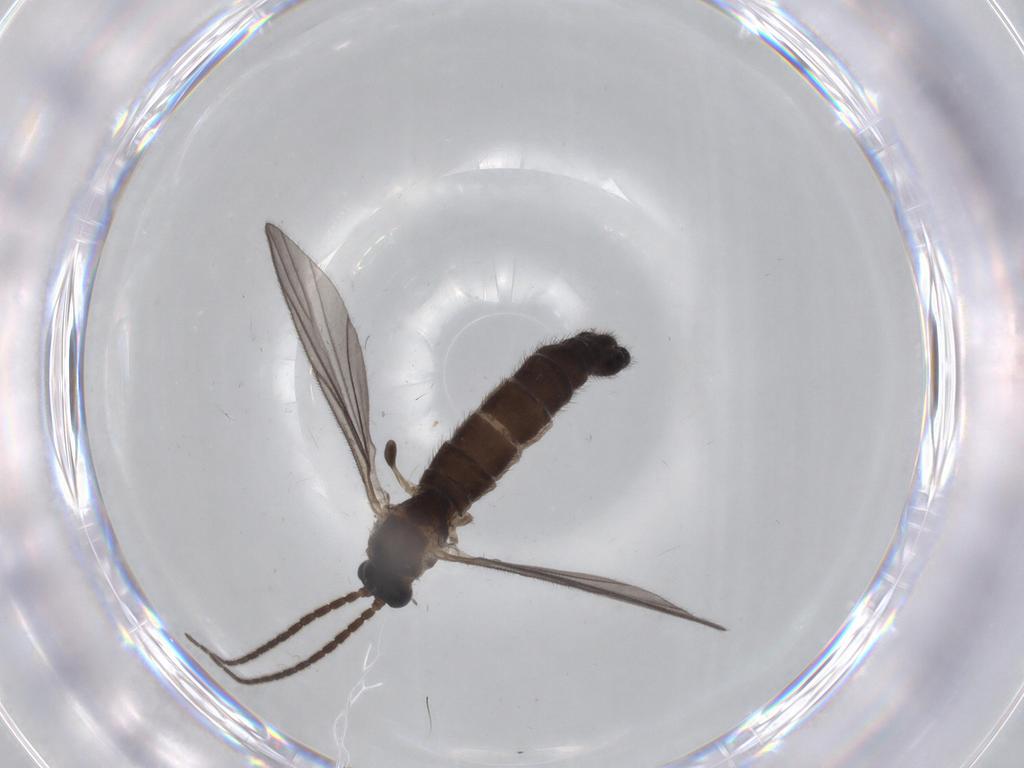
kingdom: Animalia
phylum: Arthropoda
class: Insecta
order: Diptera
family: Sciaridae
